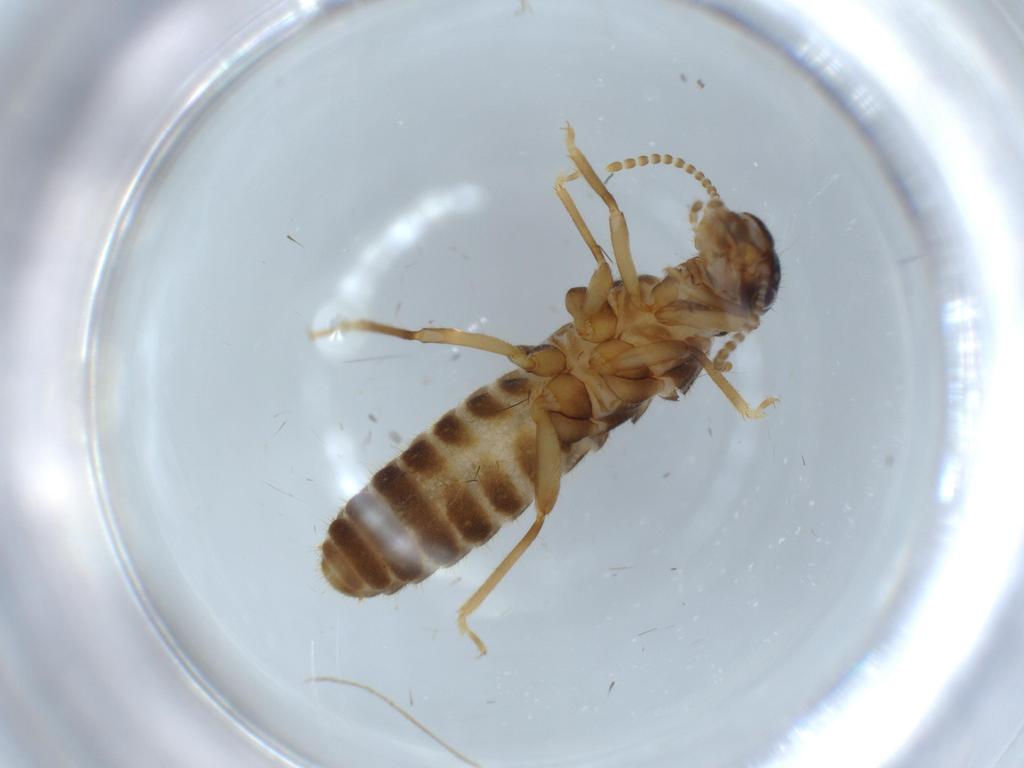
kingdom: Animalia
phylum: Arthropoda
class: Insecta
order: Blattodea
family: Termitidae
